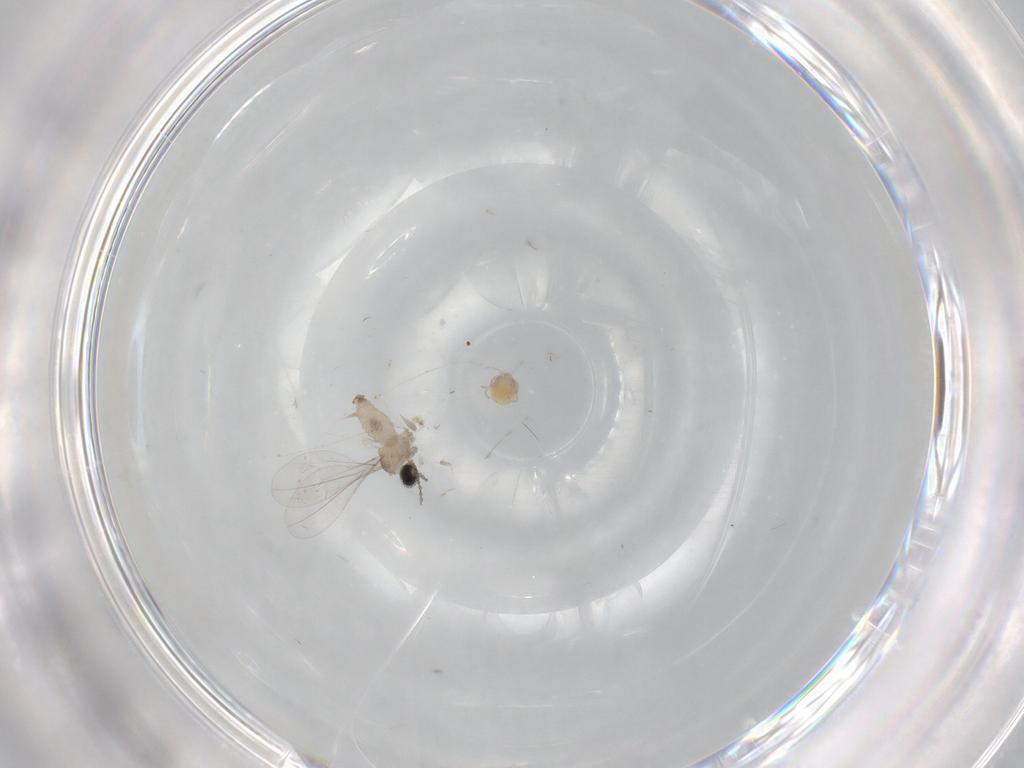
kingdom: Animalia
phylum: Arthropoda
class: Insecta
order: Diptera
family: Cecidomyiidae
